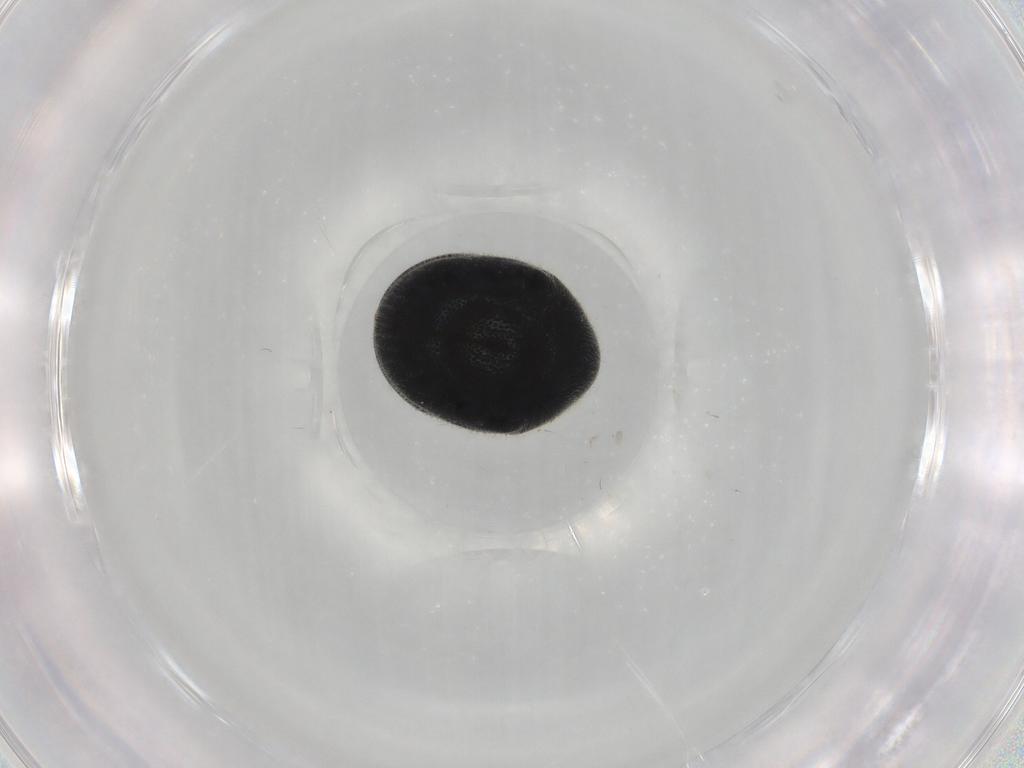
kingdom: Animalia
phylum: Arthropoda
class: Insecta
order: Coleoptera
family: Ptinidae
